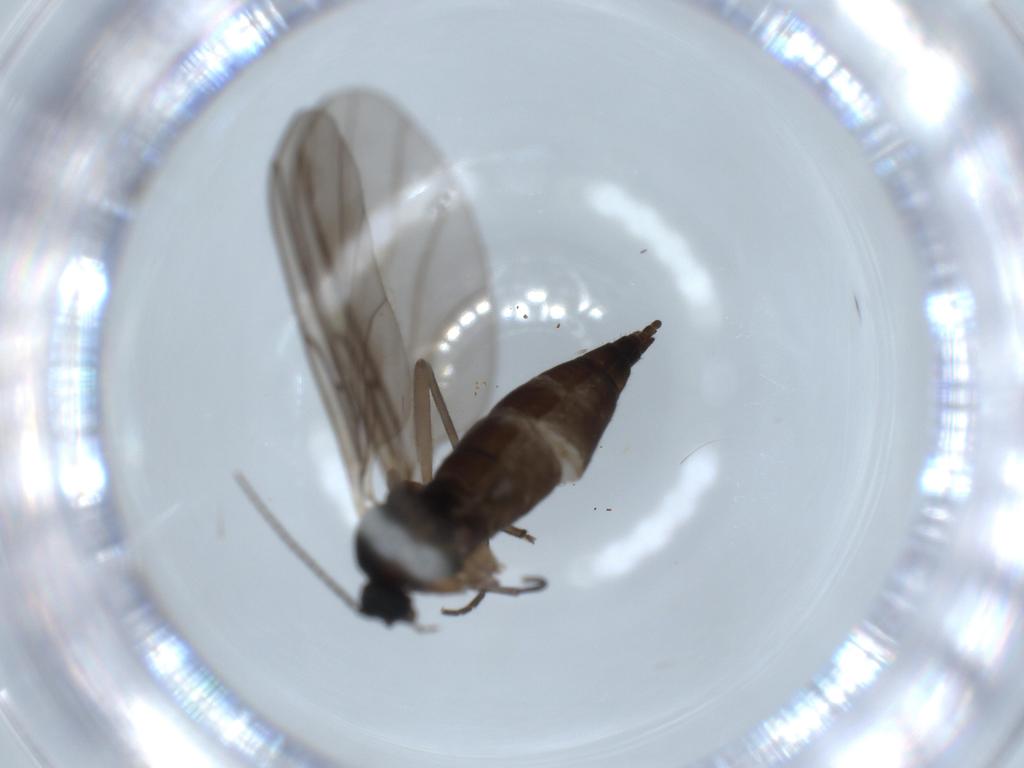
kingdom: Animalia
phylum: Arthropoda
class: Insecta
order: Diptera
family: Sciaridae
